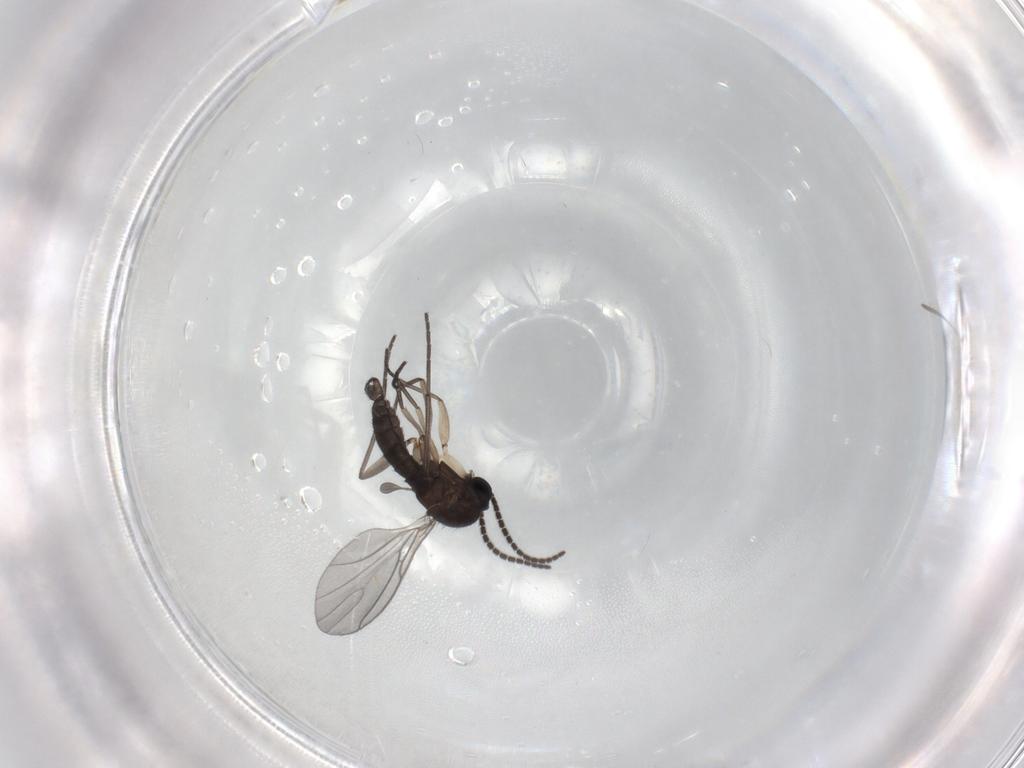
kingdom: Animalia
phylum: Arthropoda
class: Insecta
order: Diptera
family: Sciaridae
